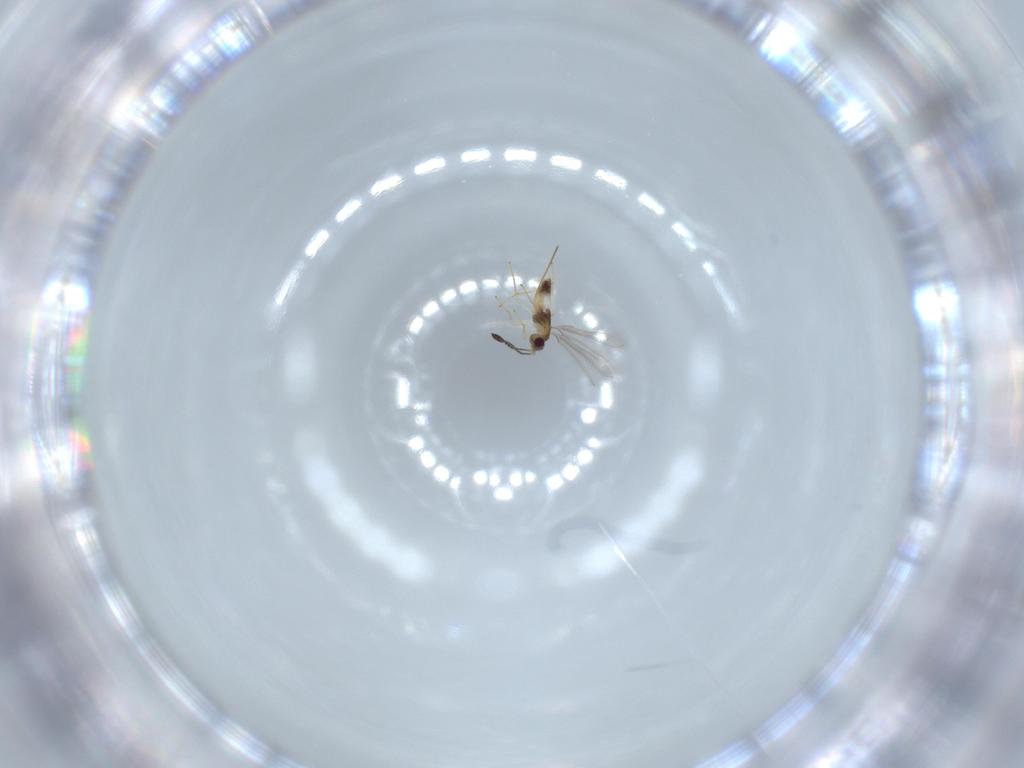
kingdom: Animalia
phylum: Arthropoda
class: Insecta
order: Hymenoptera
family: Mymaridae
